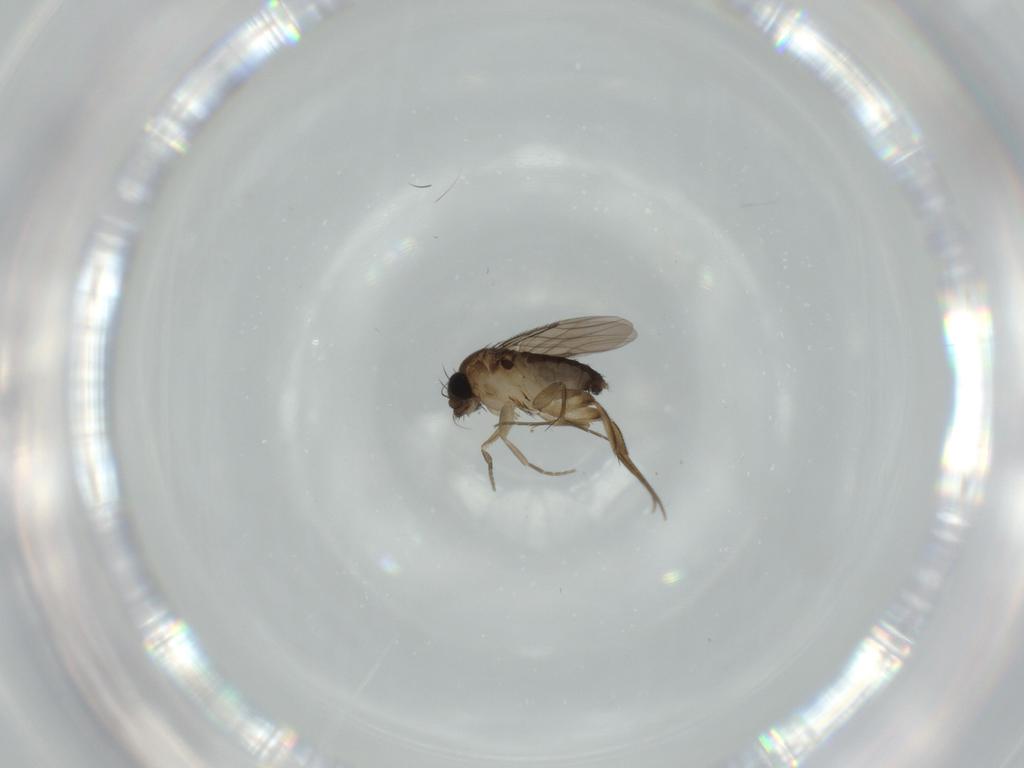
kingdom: Animalia
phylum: Arthropoda
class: Insecta
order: Diptera
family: Phoridae
